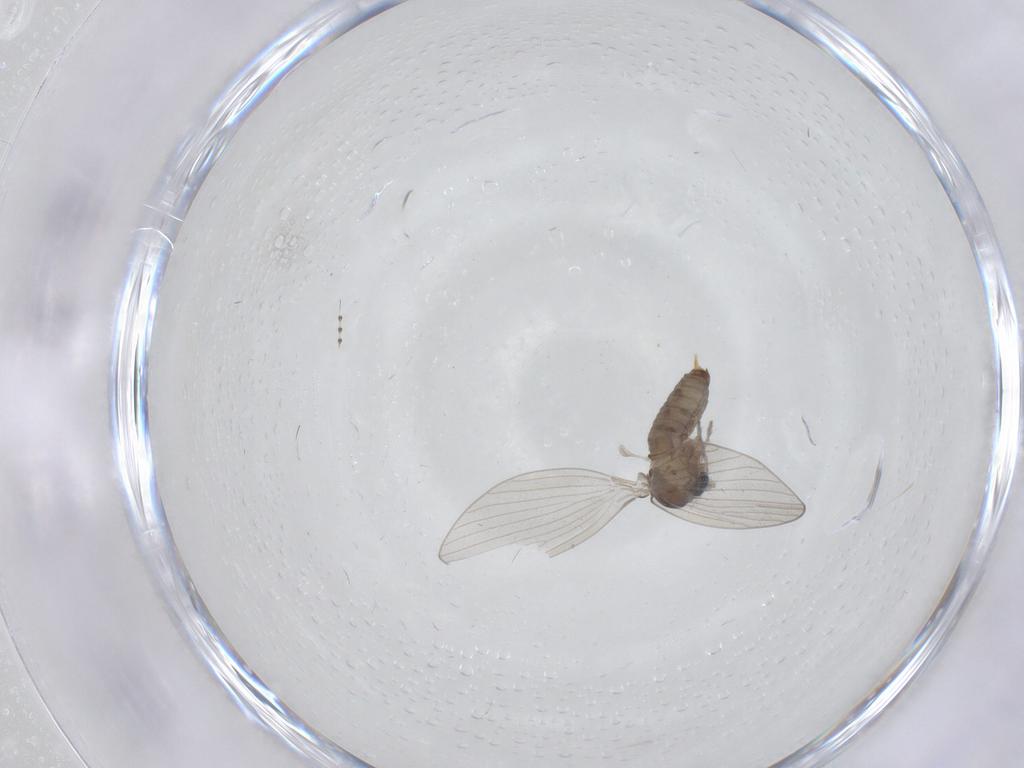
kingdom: Animalia
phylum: Arthropoda
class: Insecta
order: Diptera
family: Psychodidae
